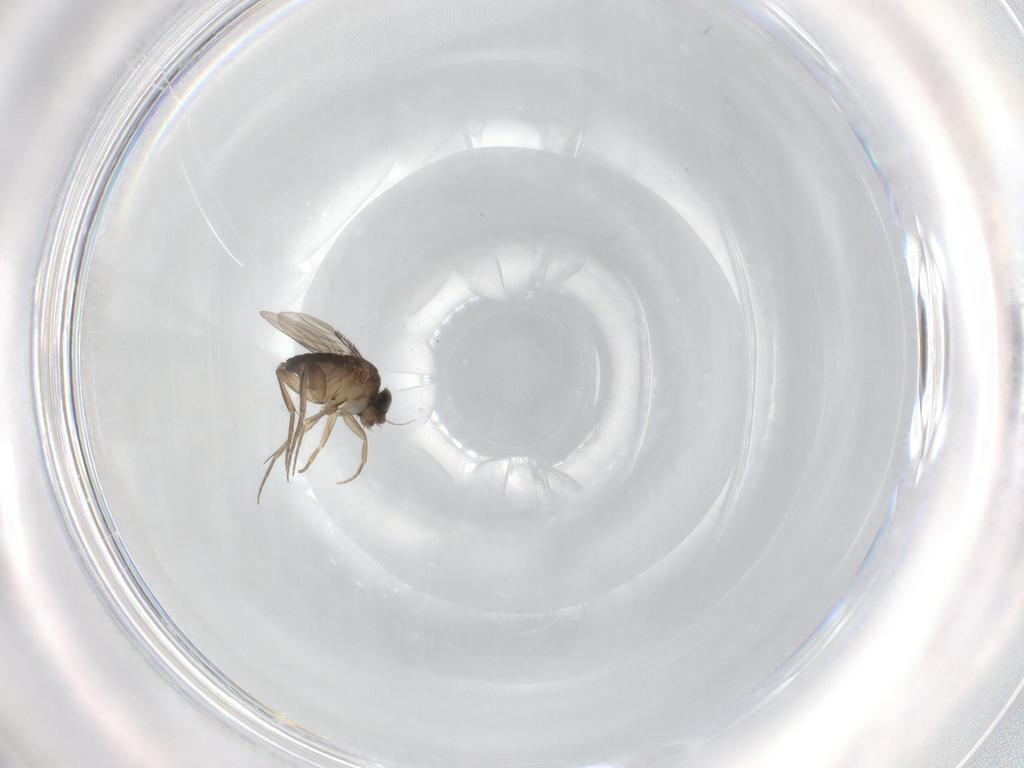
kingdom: Animalia
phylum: Arthropoda
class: Insecta
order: Diptera
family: Phoridae
